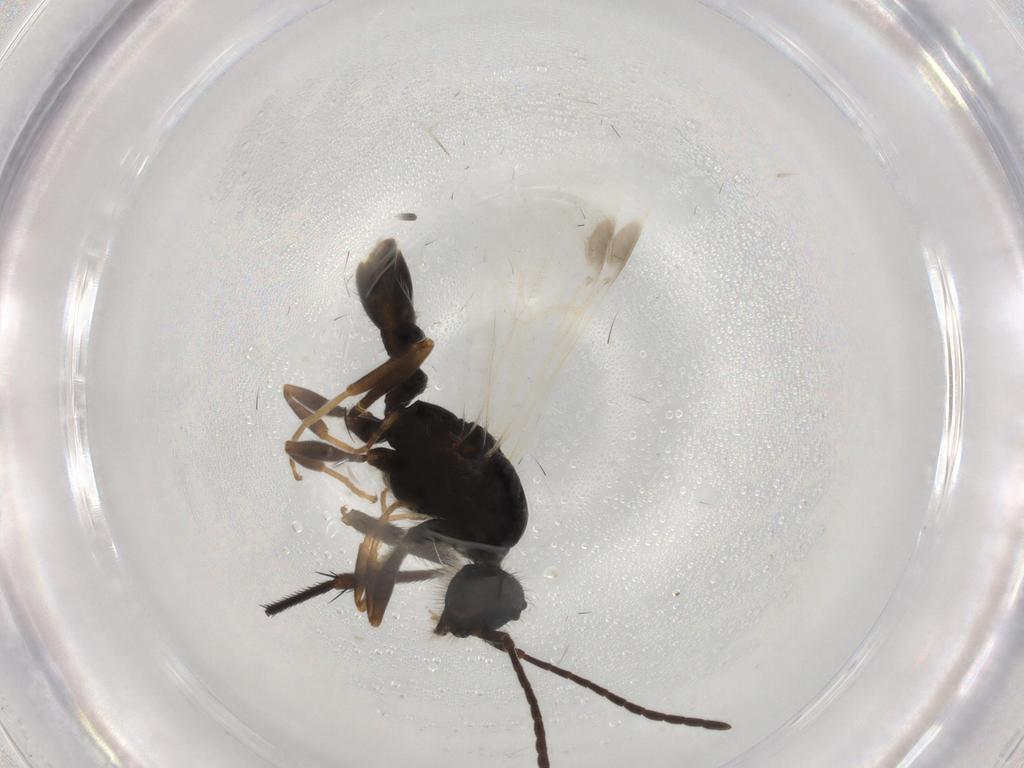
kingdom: Animalia
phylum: Arthropoda
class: Insecta
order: Hymenoptera
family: Formicidae
